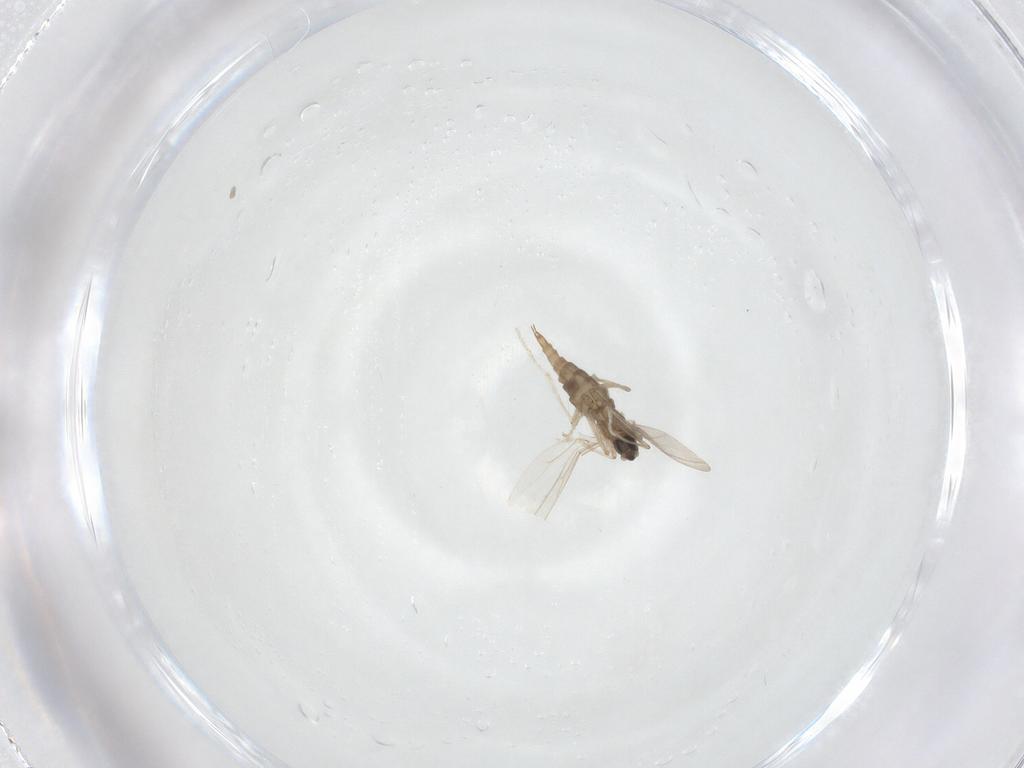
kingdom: Animalia
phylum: Arthropoda
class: Insecta
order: Diptera
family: Cecidomyiidae
